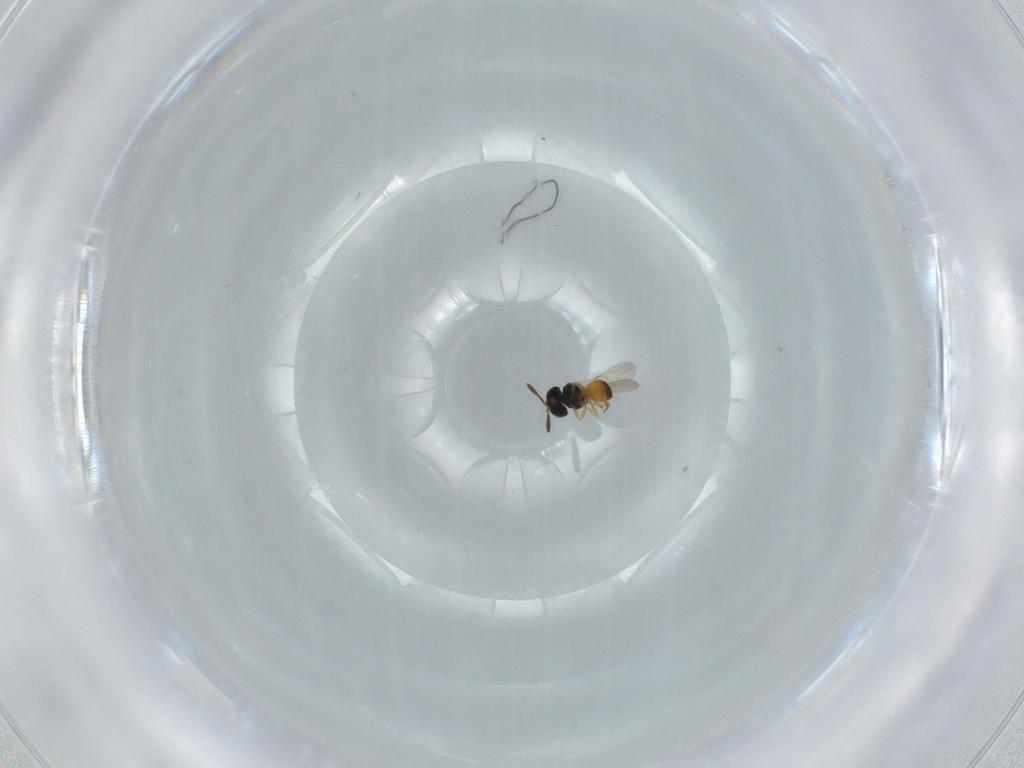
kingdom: Animalia
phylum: Arthropoda
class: Insecta
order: Hymenoptera
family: Scelionidae
